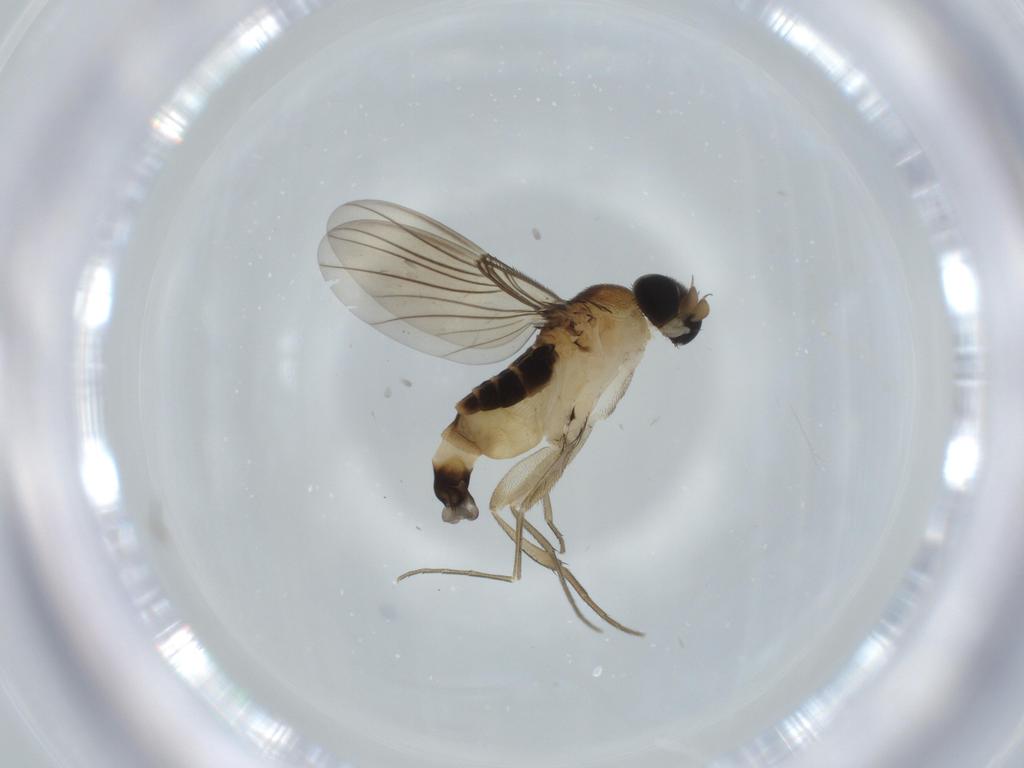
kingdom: Animalia
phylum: Arthropoda
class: Insecta
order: Diptera
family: Phoridae
